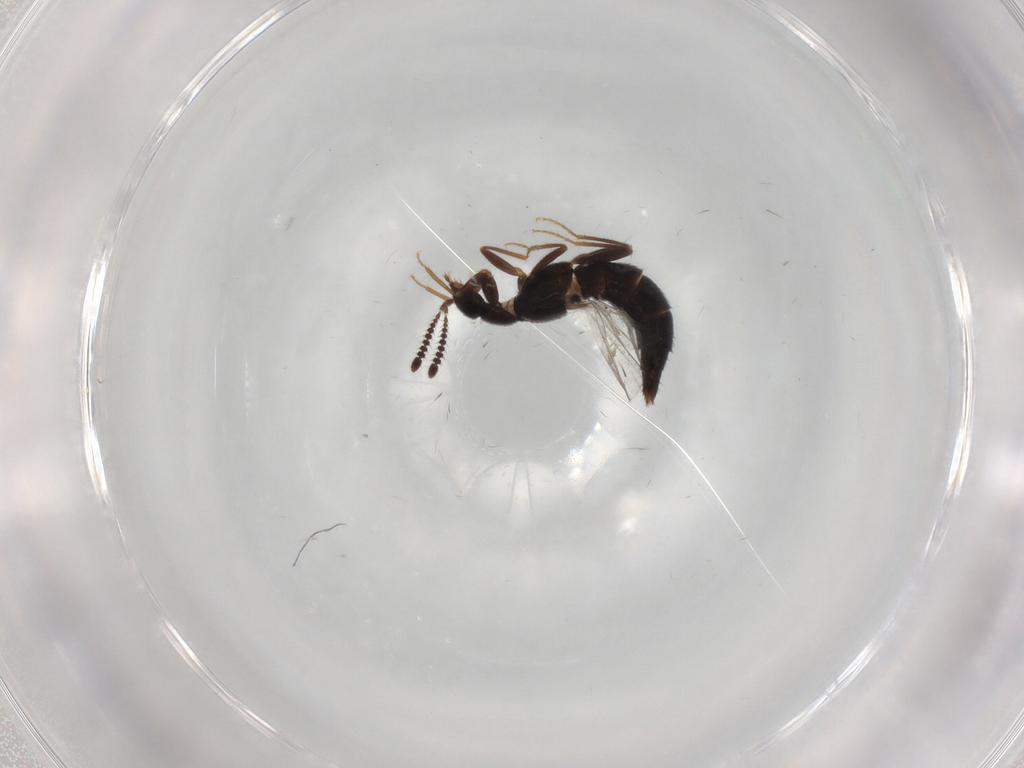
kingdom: Animalia
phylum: Arthropoda
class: Insecta
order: Coleoptera
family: Staphylinidae
